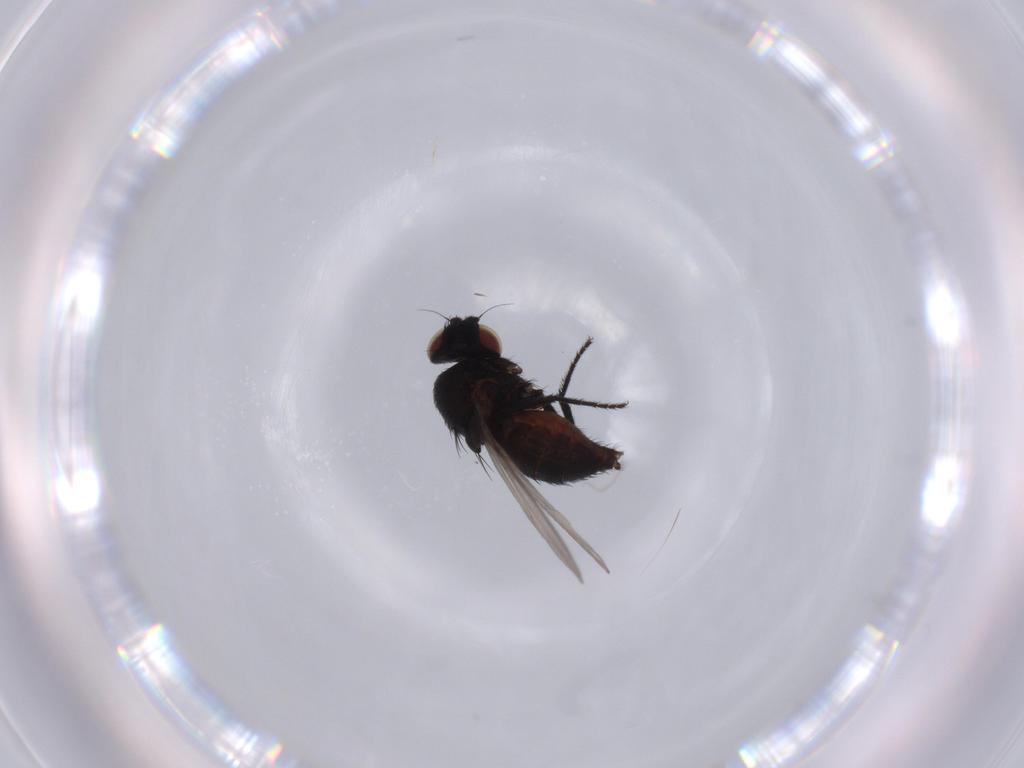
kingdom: Animalia
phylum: Arthropoda
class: Insecta
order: Diptera
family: Milichiidae
